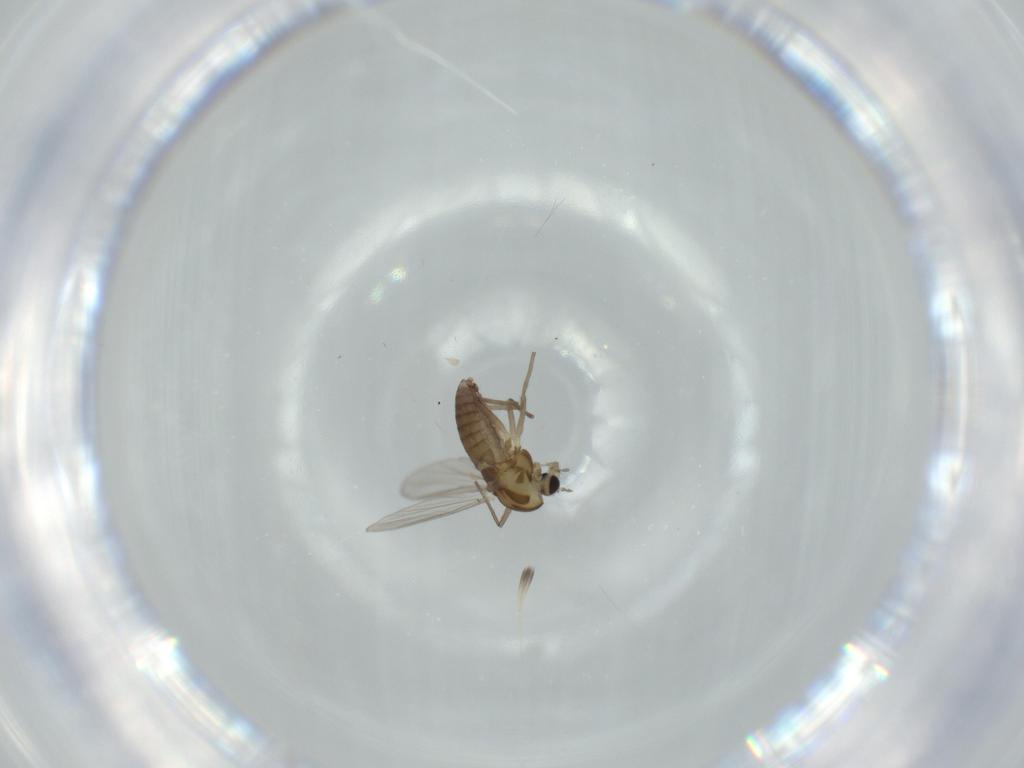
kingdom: Animalia
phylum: Arthropoda
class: Insecta
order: Diptera
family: Chironomidae
